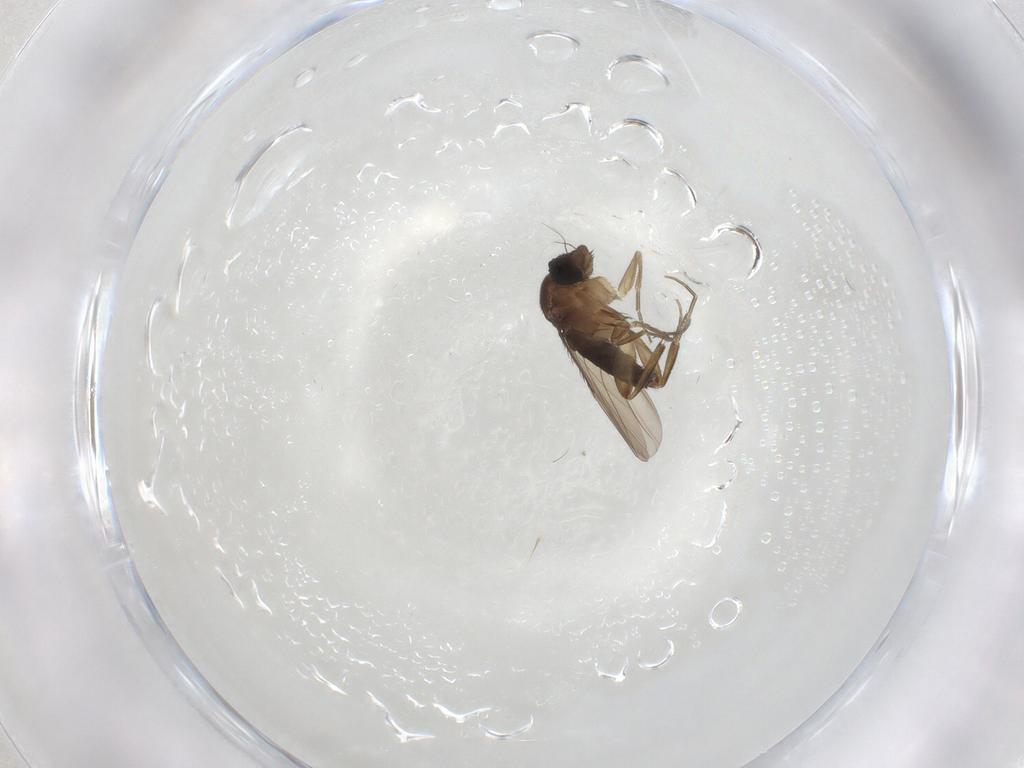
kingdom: Animalia
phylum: Arthropoda
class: Insecta
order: Diptera
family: Phoridae
